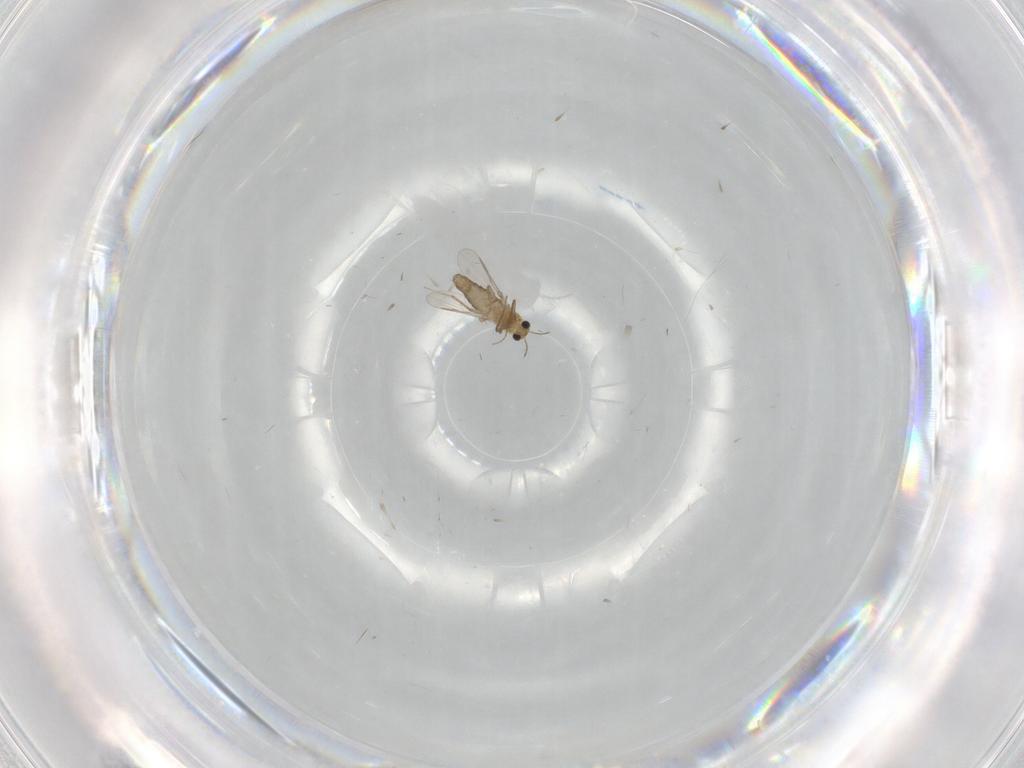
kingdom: Animalia
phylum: Arthropoda
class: Insecta
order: Diptera
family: Chironomidae
